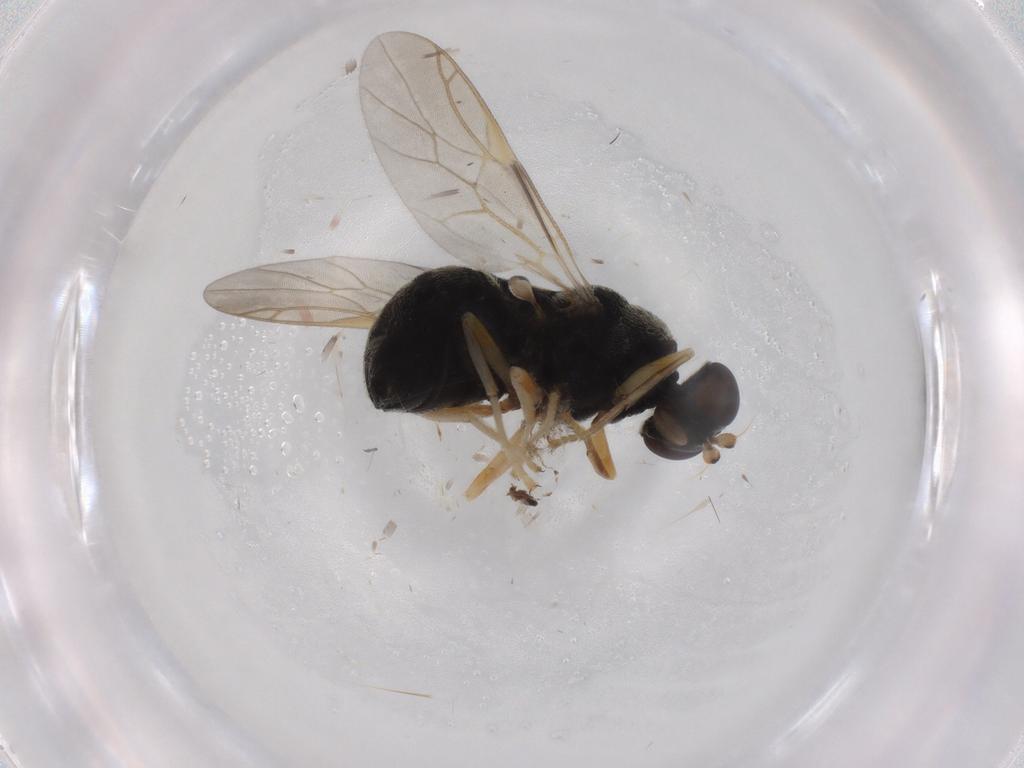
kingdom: Animalia
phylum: Arthropoda
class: Insecta
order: Diptera
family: Stratiomyidae
